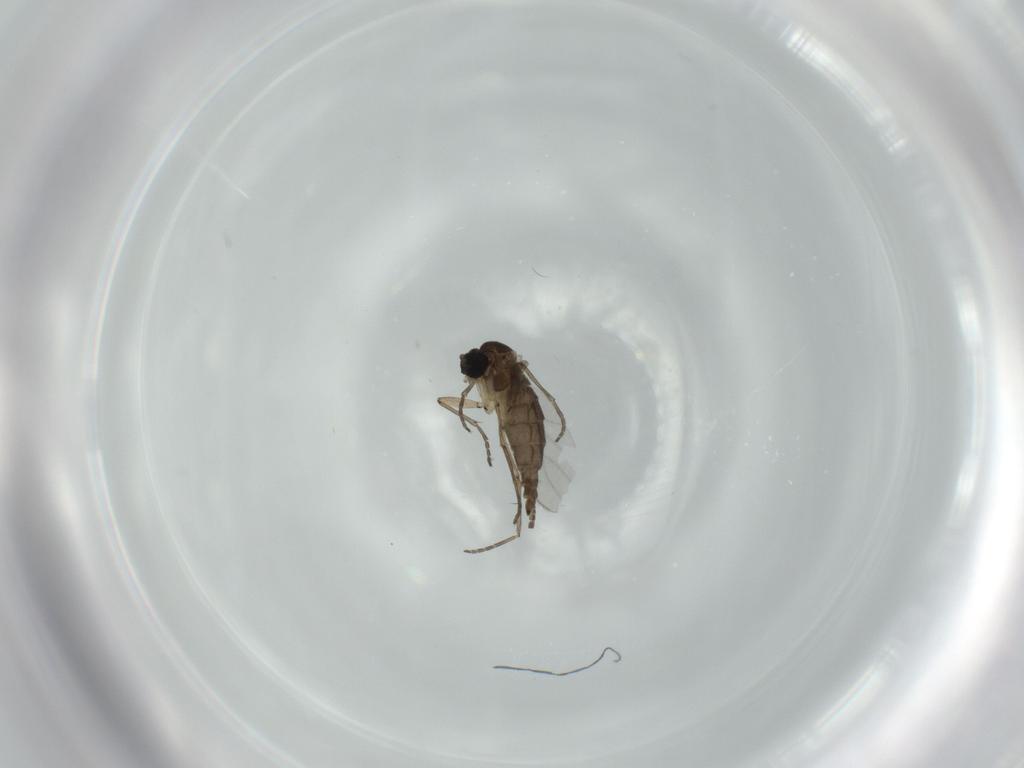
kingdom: Animalia
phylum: Arthropoda
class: Insecta
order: Diptera
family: Sciaridae
